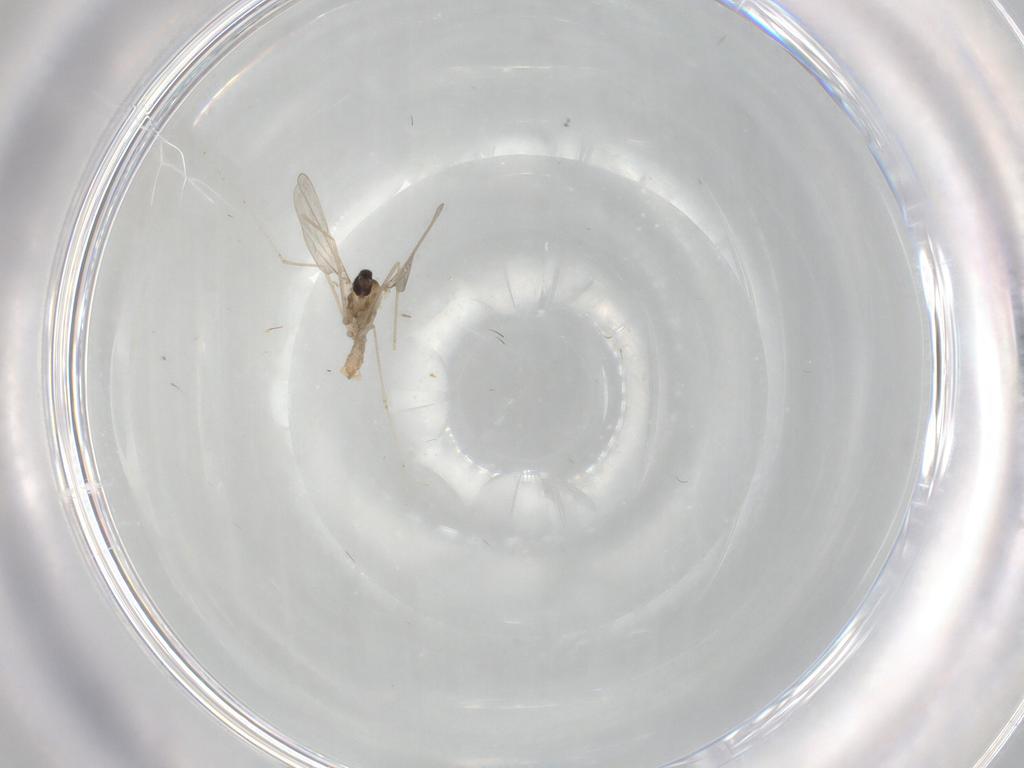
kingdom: Animalia
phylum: Arthropoda
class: Insecta
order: Diptera
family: Cecidomyiidae
